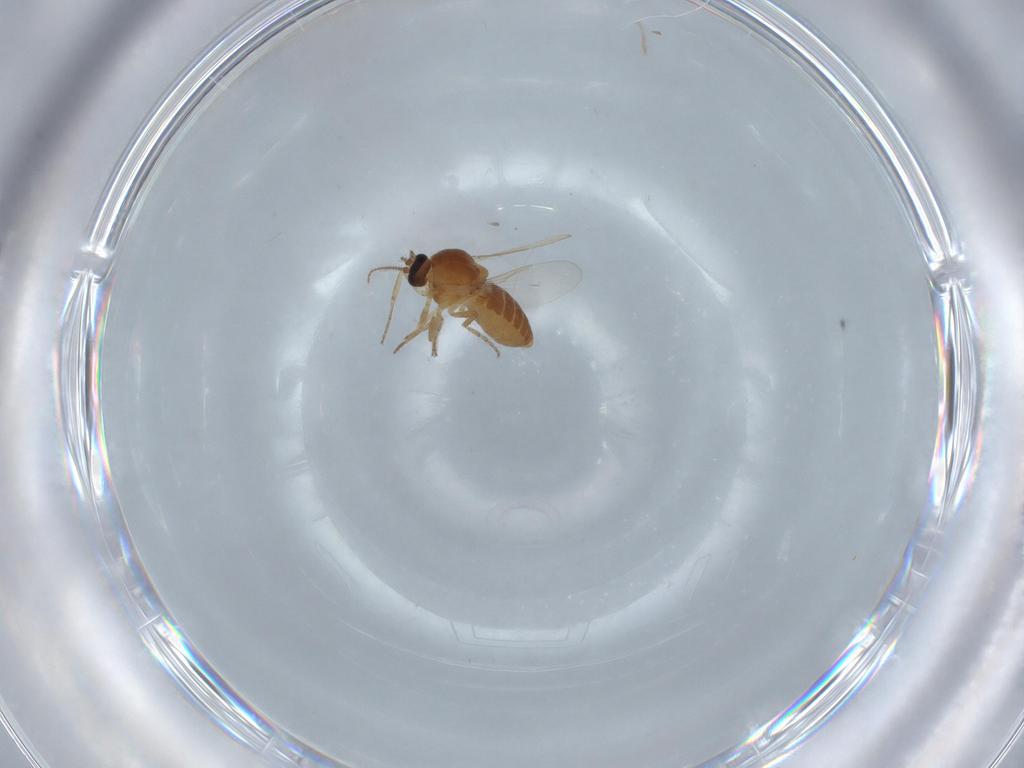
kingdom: Animalia
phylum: Arthropoda
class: Insecta
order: Diptera
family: Ceratopogonidae
